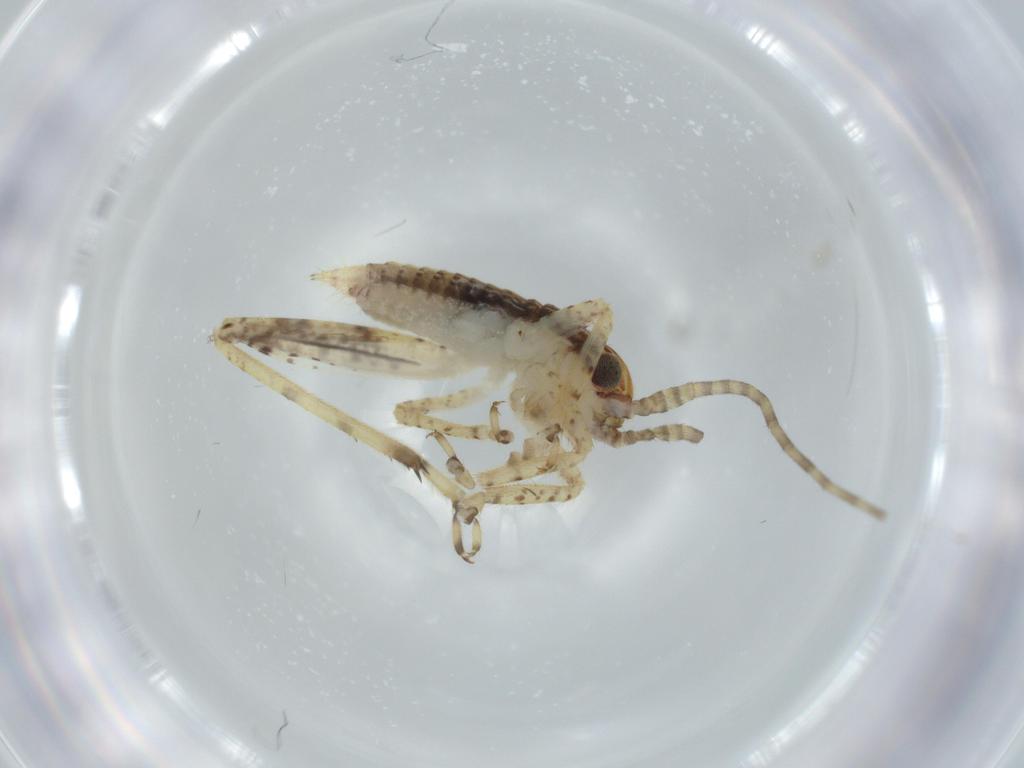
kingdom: Animalia
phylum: Arthropoda
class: Insecta
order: Orthoptera
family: Gryllidae
